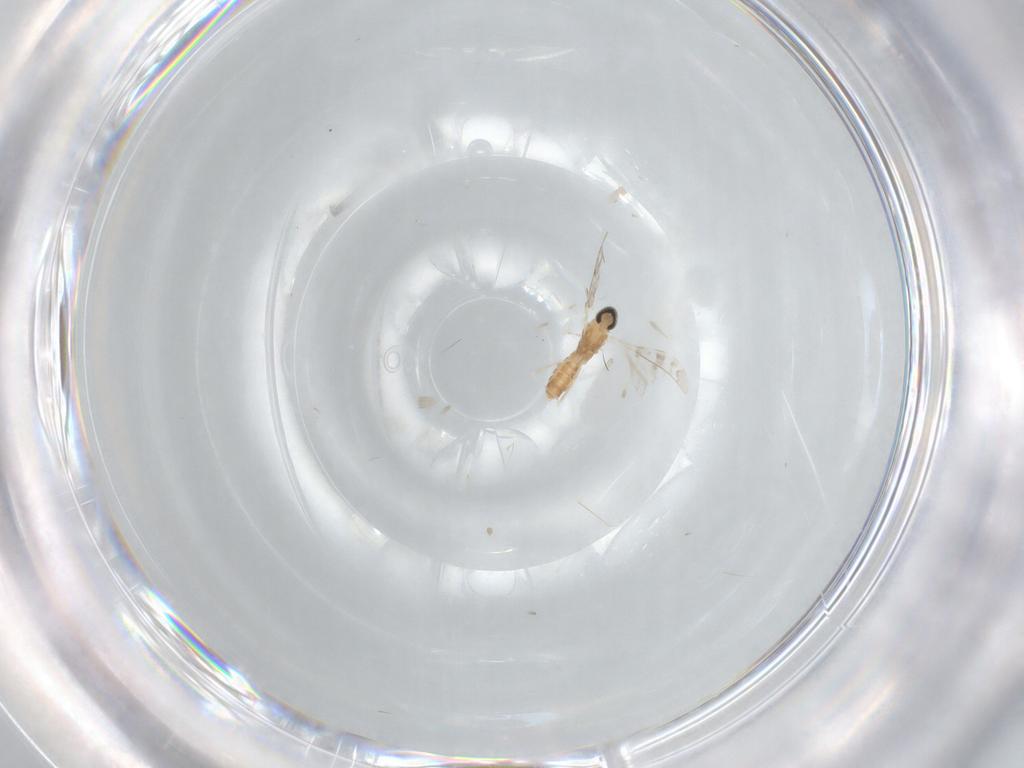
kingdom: Animalia
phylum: Arthropoda
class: Insecta
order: Diptera
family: Cecidomyiidae
